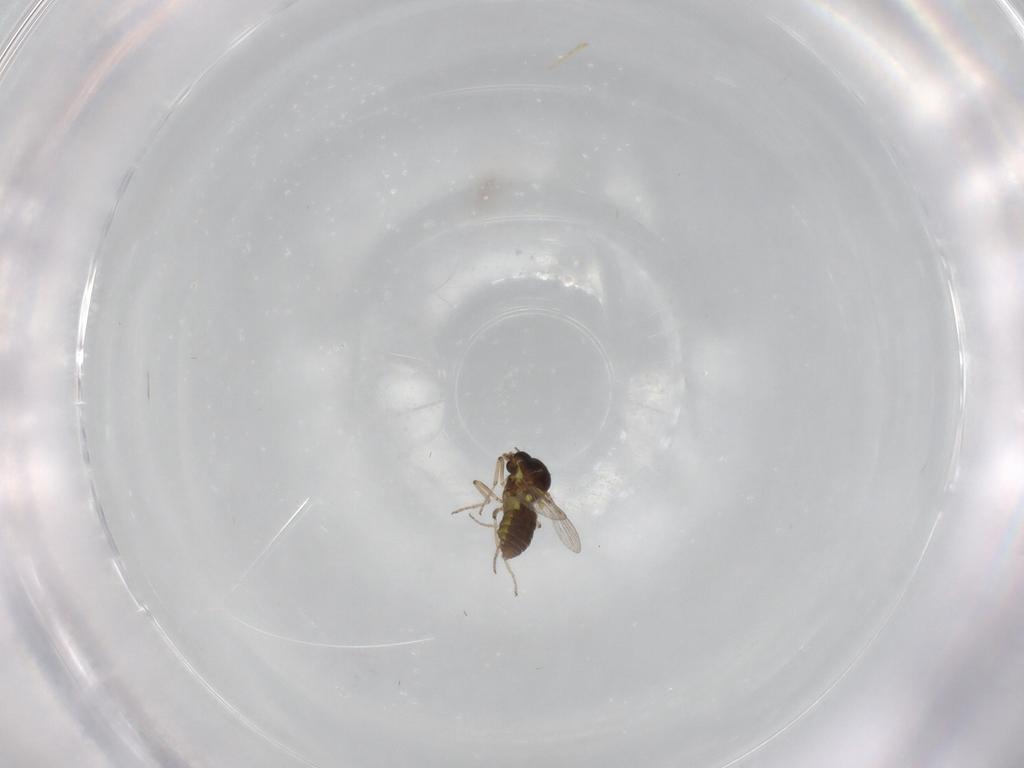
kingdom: Animalia
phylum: Arthropoda
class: Insecta
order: Diptera
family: Ceratopogonidae
